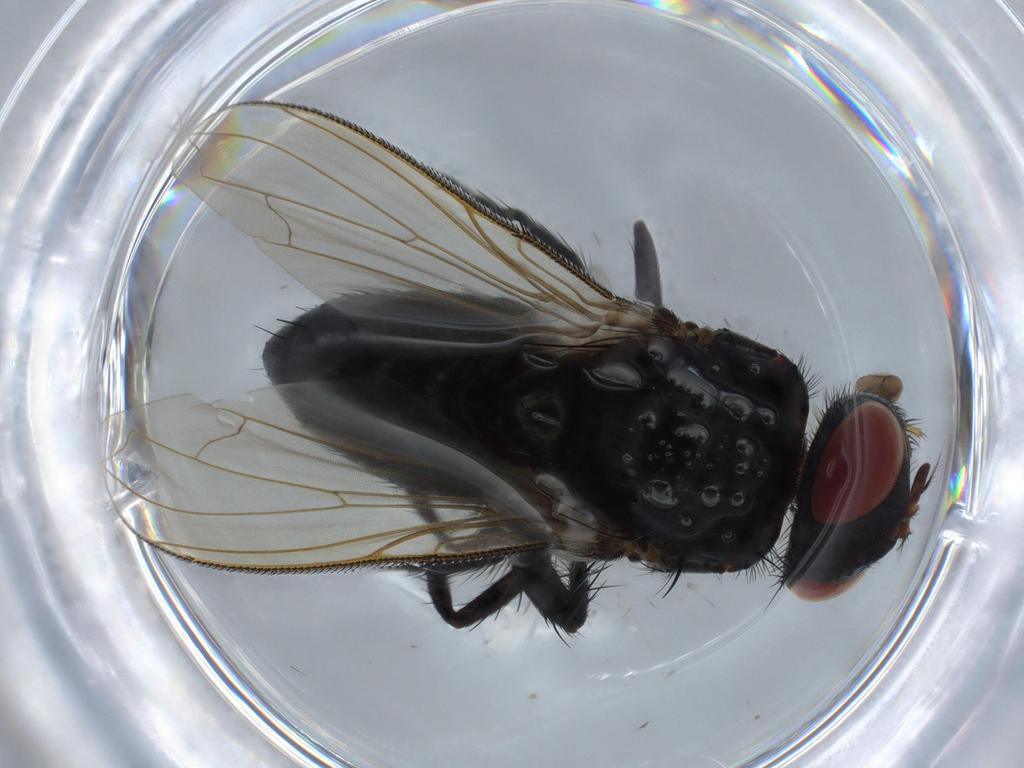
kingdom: Animalia
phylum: Arthropoda
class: Insecta
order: Diptera
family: Calliphoridae
